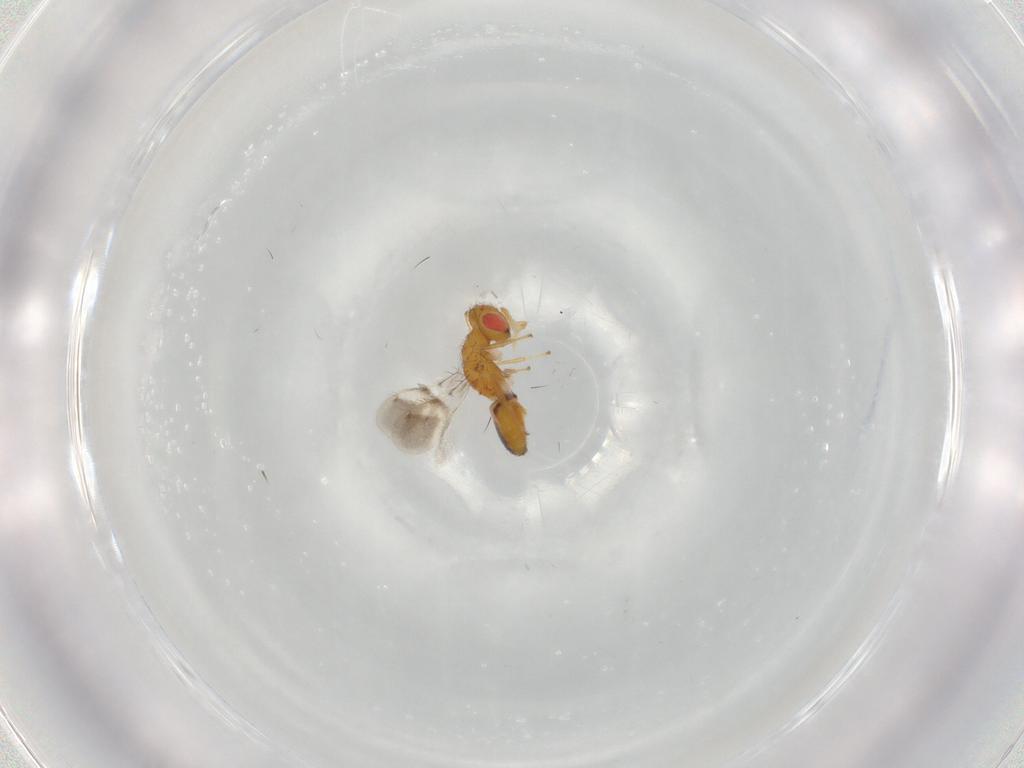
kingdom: Animalia
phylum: Arthropoda
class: Insecta
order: Hymenoptera
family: Eulophidae
